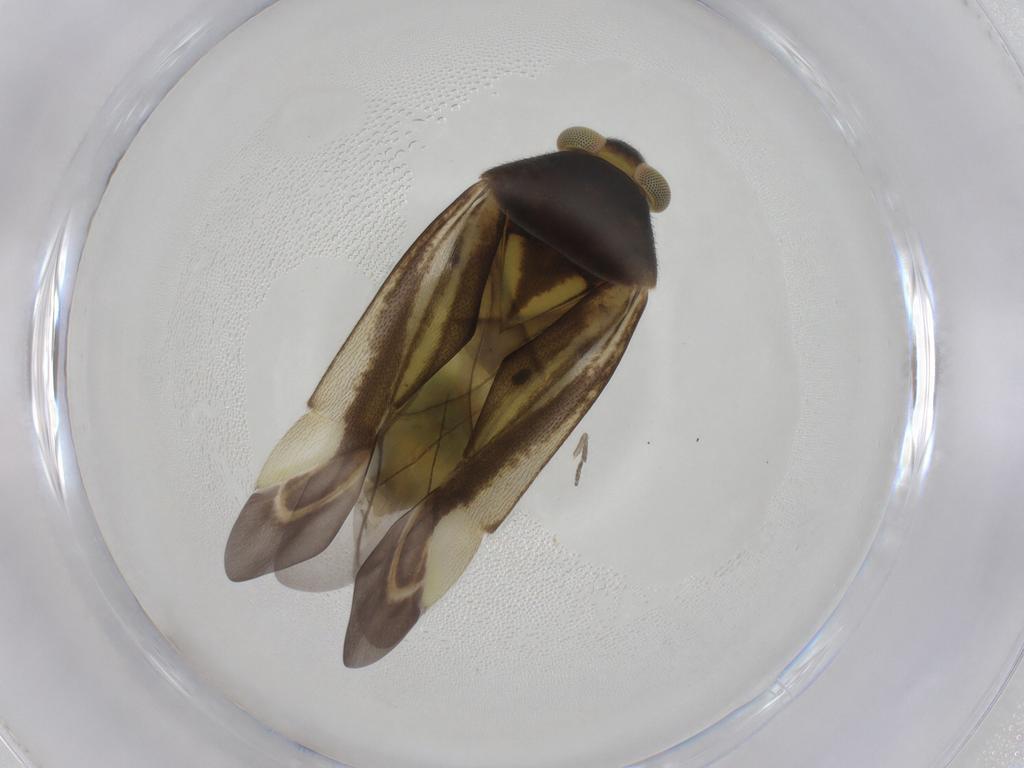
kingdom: Animalia
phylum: Arthropoda
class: Insecta
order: Hemiptera
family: Miridae
